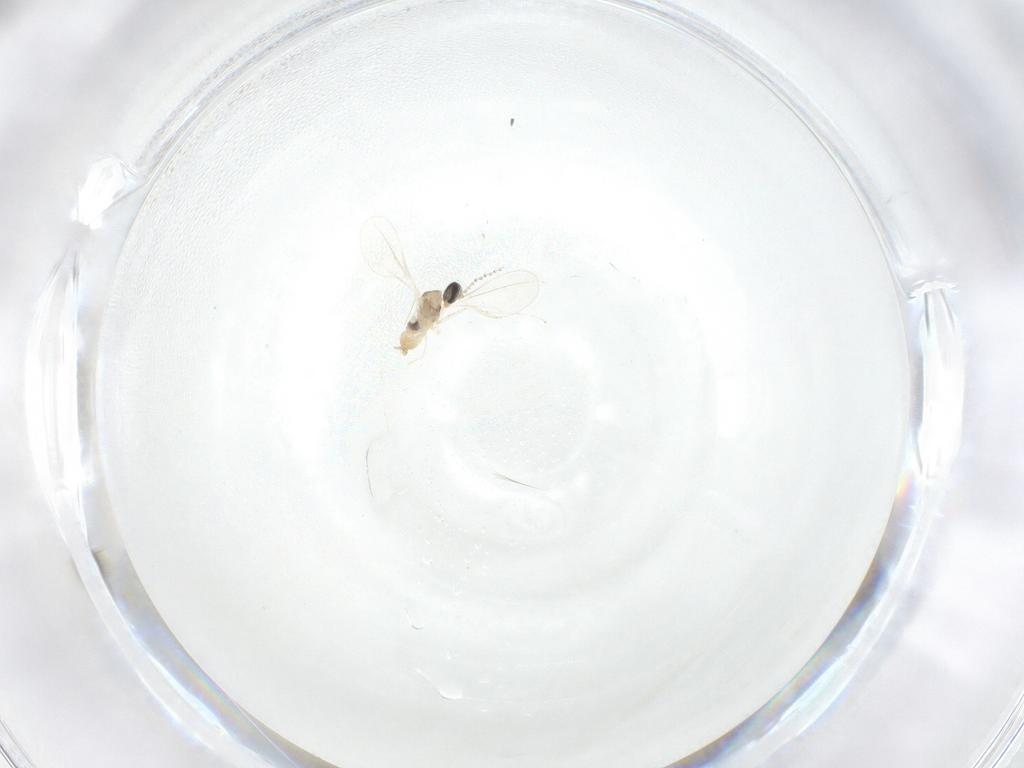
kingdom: Animalia
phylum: Arthropoda
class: Insecta
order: Diptera
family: Cecidomyiidae
